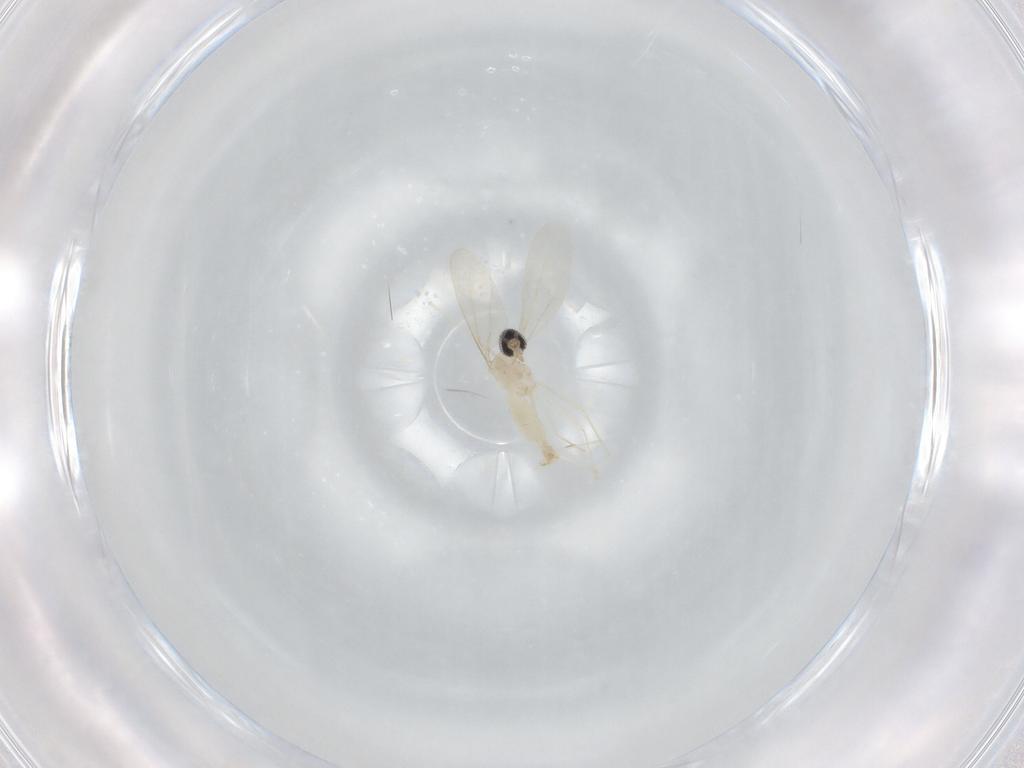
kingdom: Animalia
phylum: Arthropoda
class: Insecta
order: Diptera
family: Cecidomyiidae
